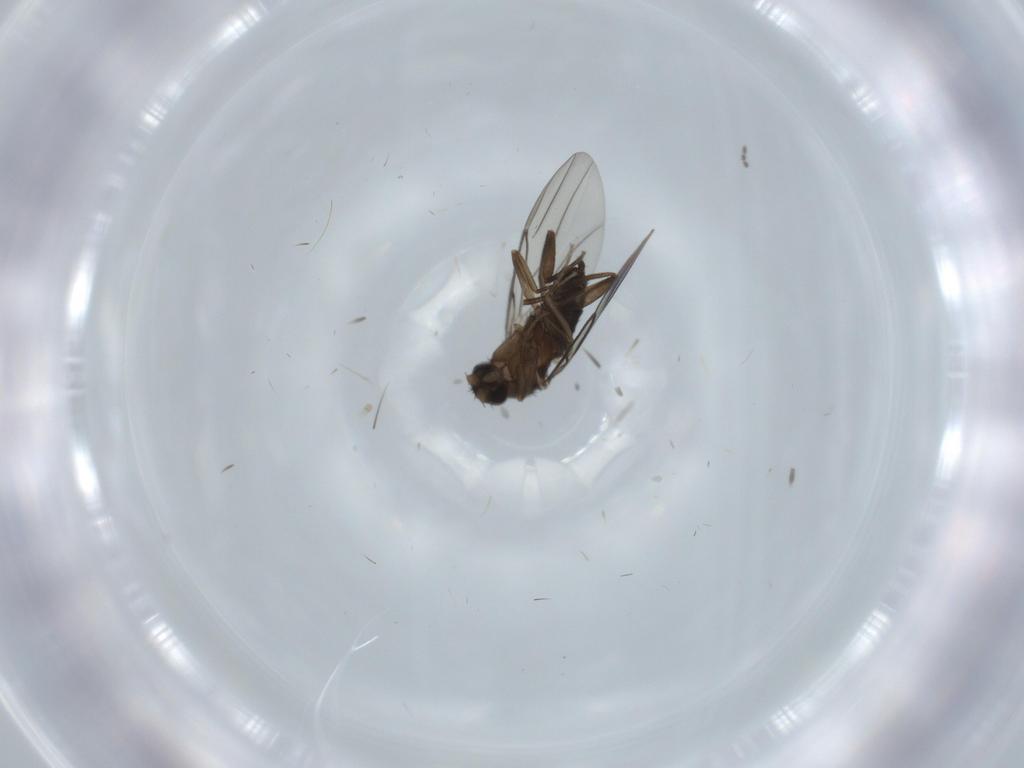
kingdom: Animalia
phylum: Arthropoda
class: Insecta
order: Diptera
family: Sciaridae
